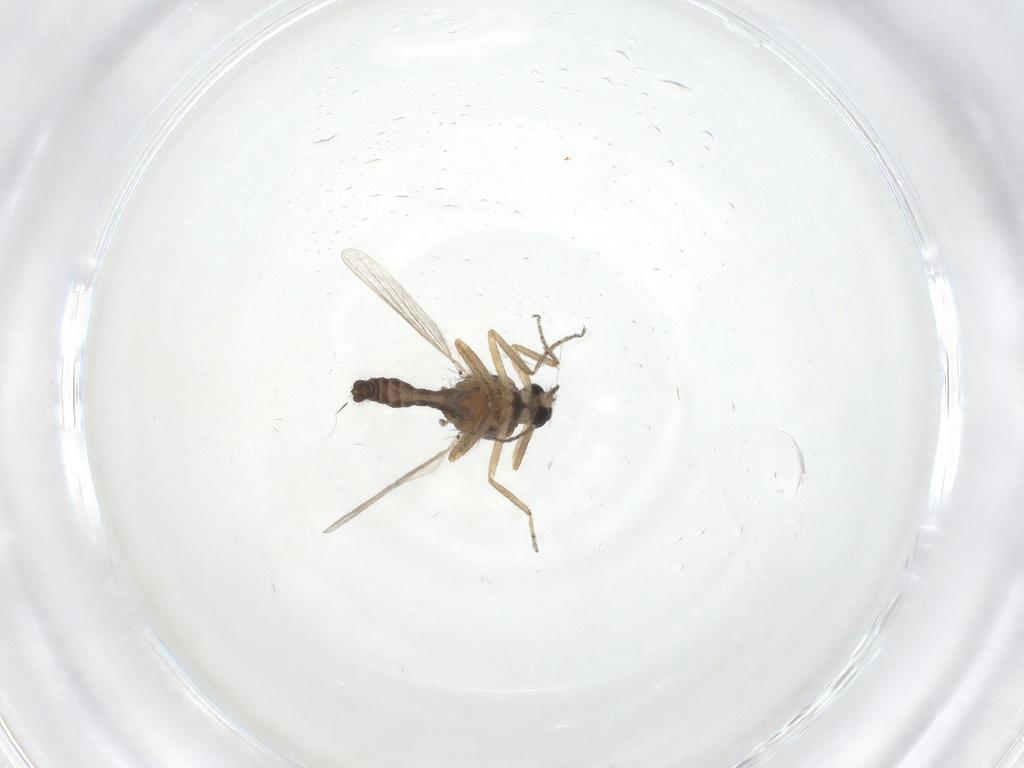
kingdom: Animalia
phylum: Arthropoda
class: Insecta
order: Diptera
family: Ceratopogonidae
